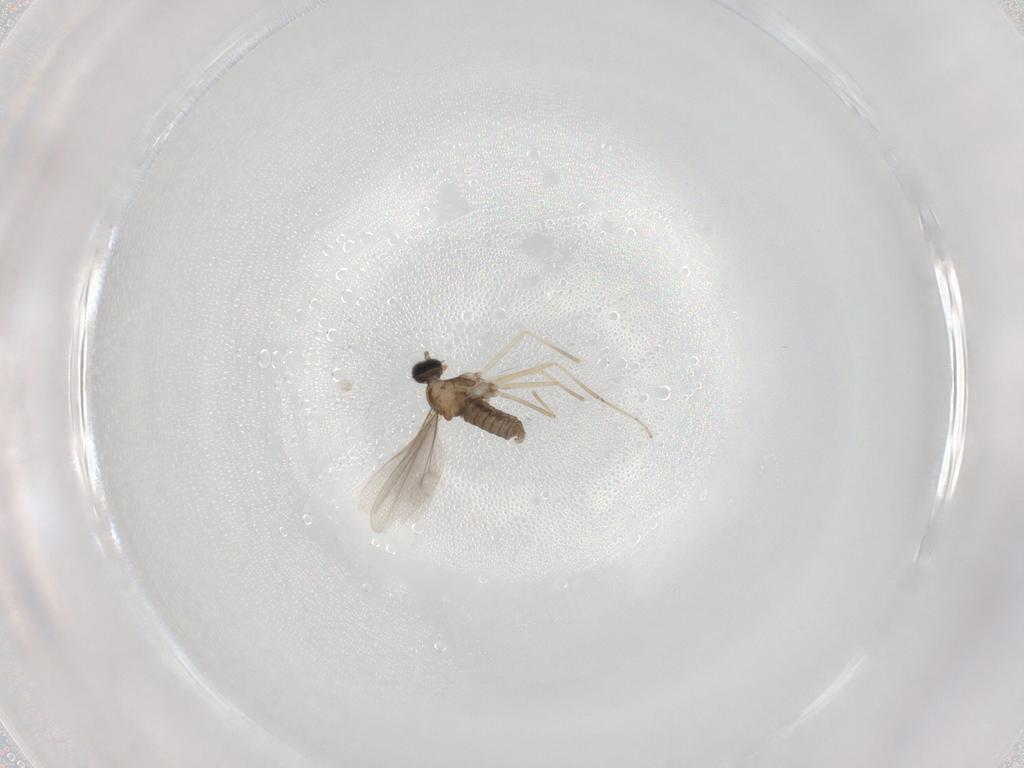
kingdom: Animalia
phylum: Arthropoda
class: Insecta
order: Diptera
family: Cecidomyiidae
